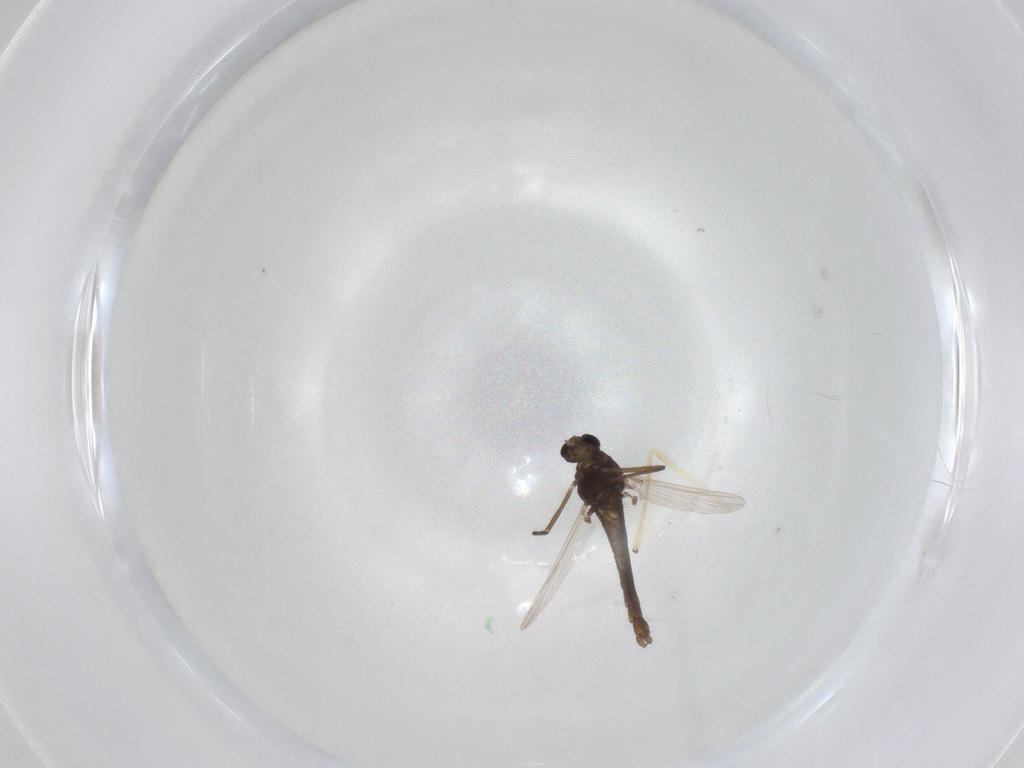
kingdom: Animalia
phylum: Arthropoda
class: Insecta
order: Diptera
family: Chironomidae
